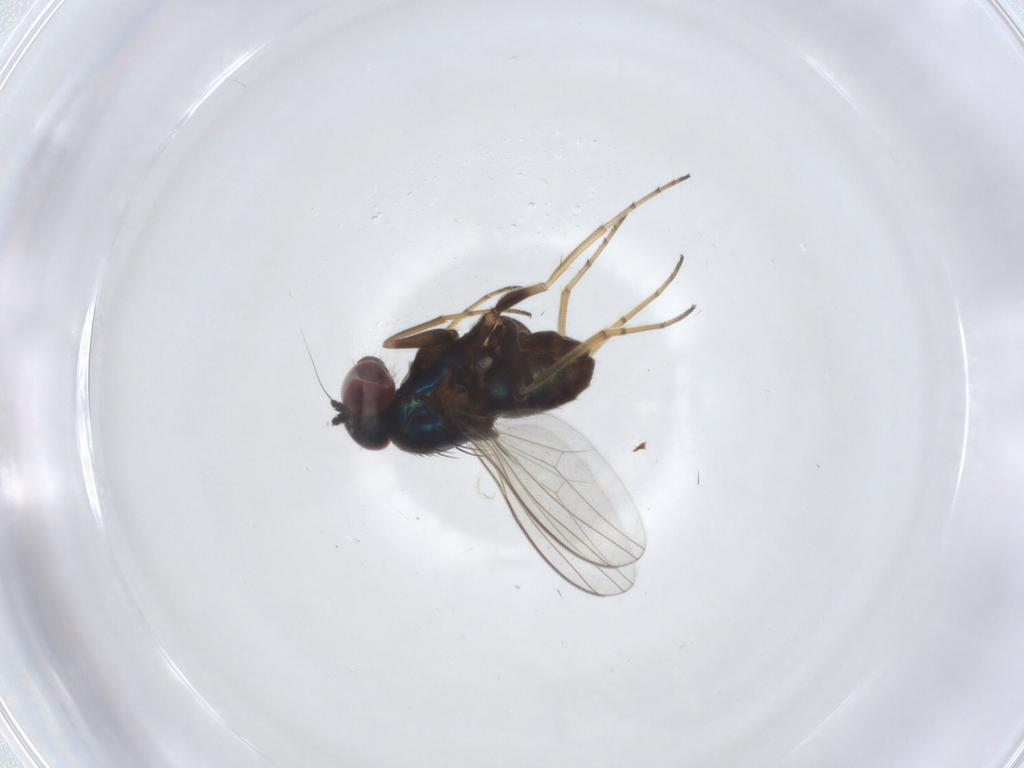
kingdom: Animalia
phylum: Arthropoda
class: Insecta
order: Diptera
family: Dolichopodidae
